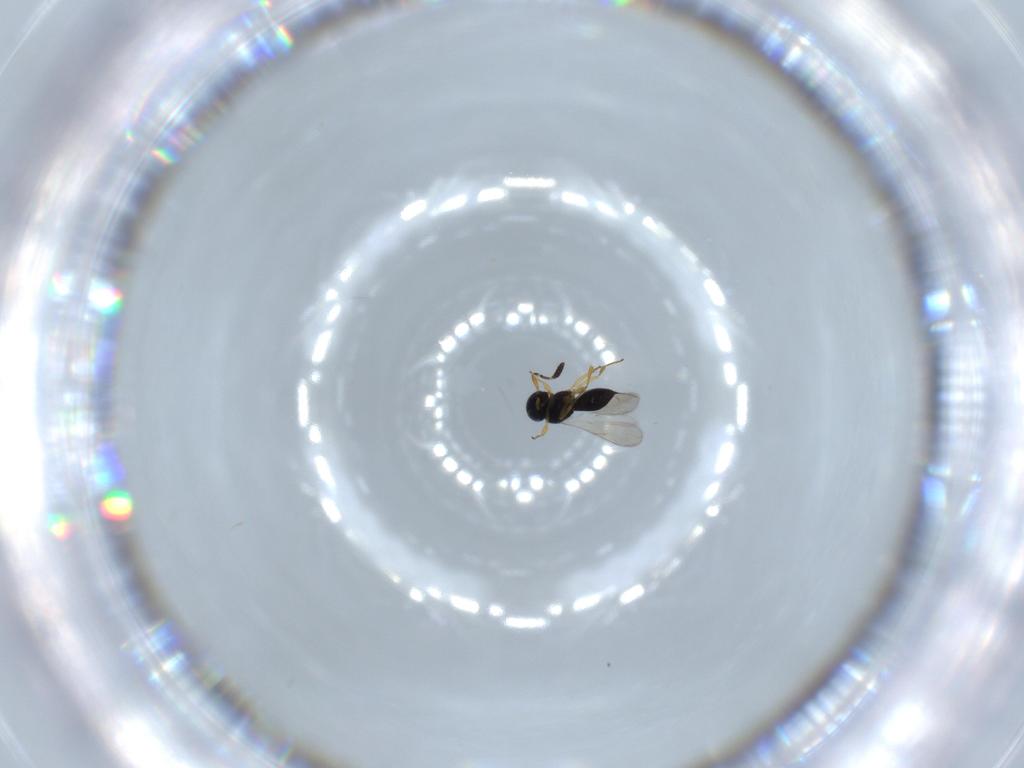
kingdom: Animalia
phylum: Arthropoda
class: Insecta
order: Hymenoptera
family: Scelionidae
